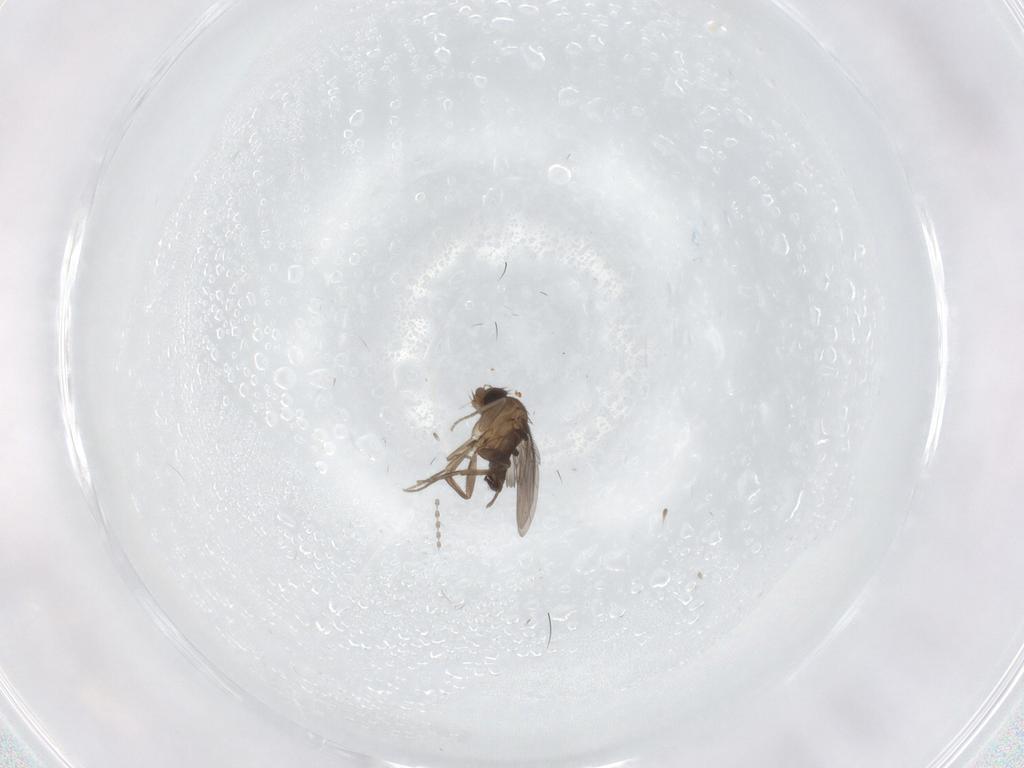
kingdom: Animalia
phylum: Arthropoda
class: Insecta
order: Diptera
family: Phoridae
